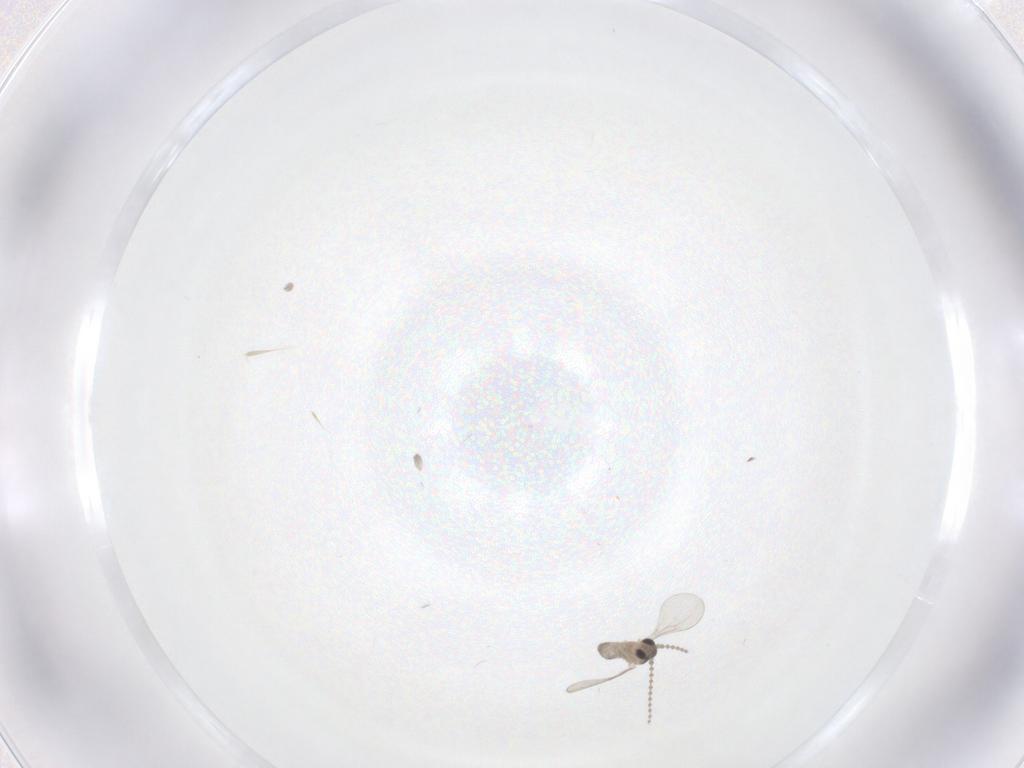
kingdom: Animalia
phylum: Arthropoda
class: Insecta
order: Diptera
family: Cecidomyiidae
